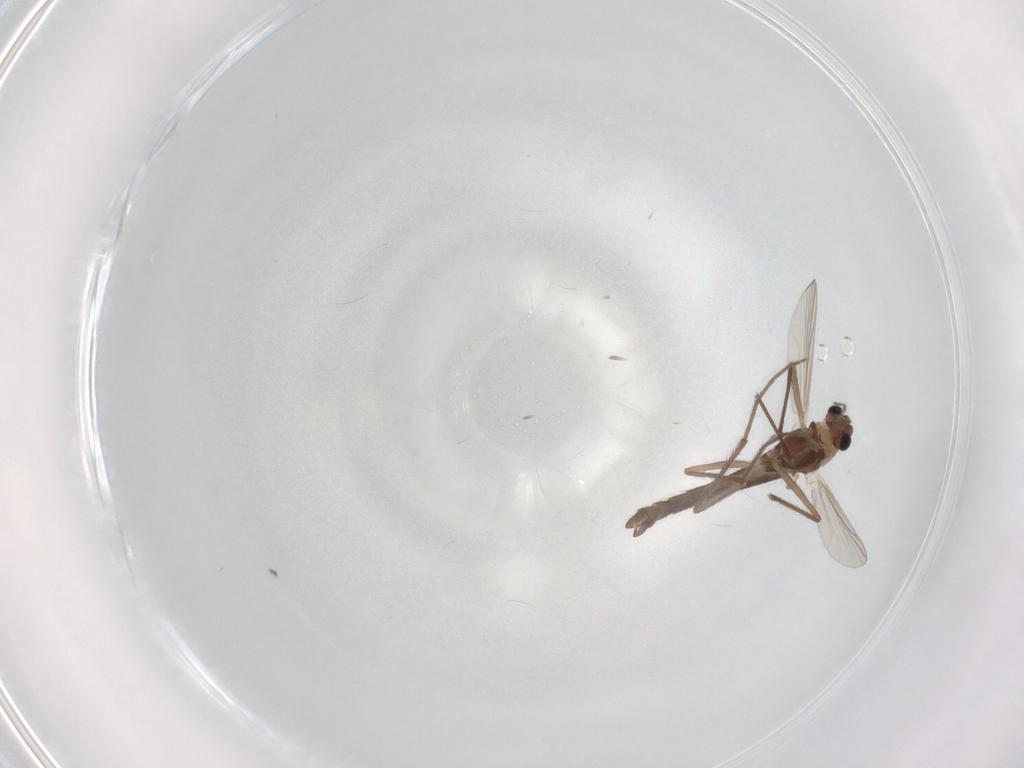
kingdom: Animalia
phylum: Arthropoda
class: Insecta
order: Diptera
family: Chironomidae
